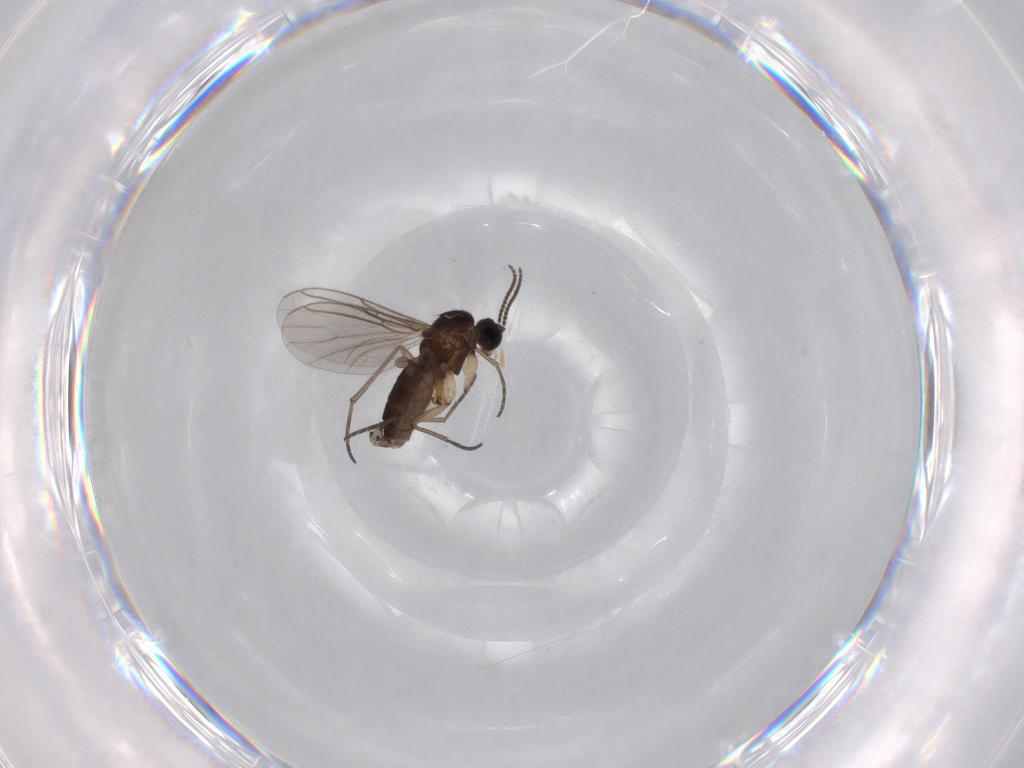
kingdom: Animalia
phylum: Arthropoda
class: Insecta
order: Diptera
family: Sciaridae
